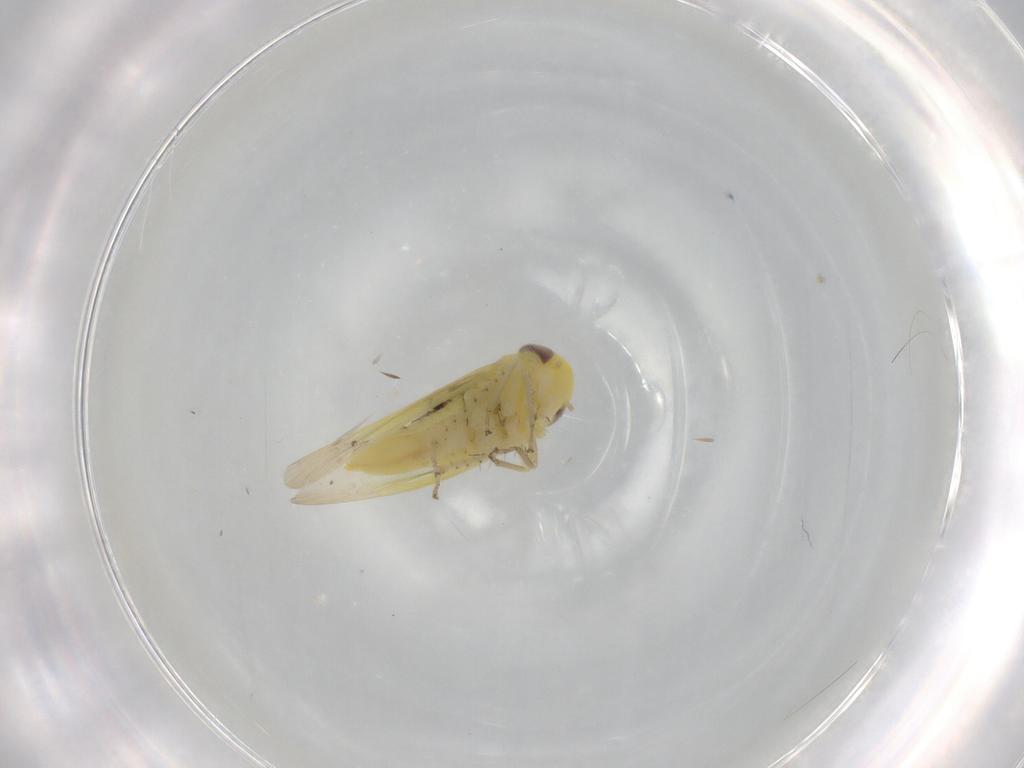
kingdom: Animalia
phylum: Arthropoda
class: Insecta
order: Hemiptera
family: Cicadellidae
